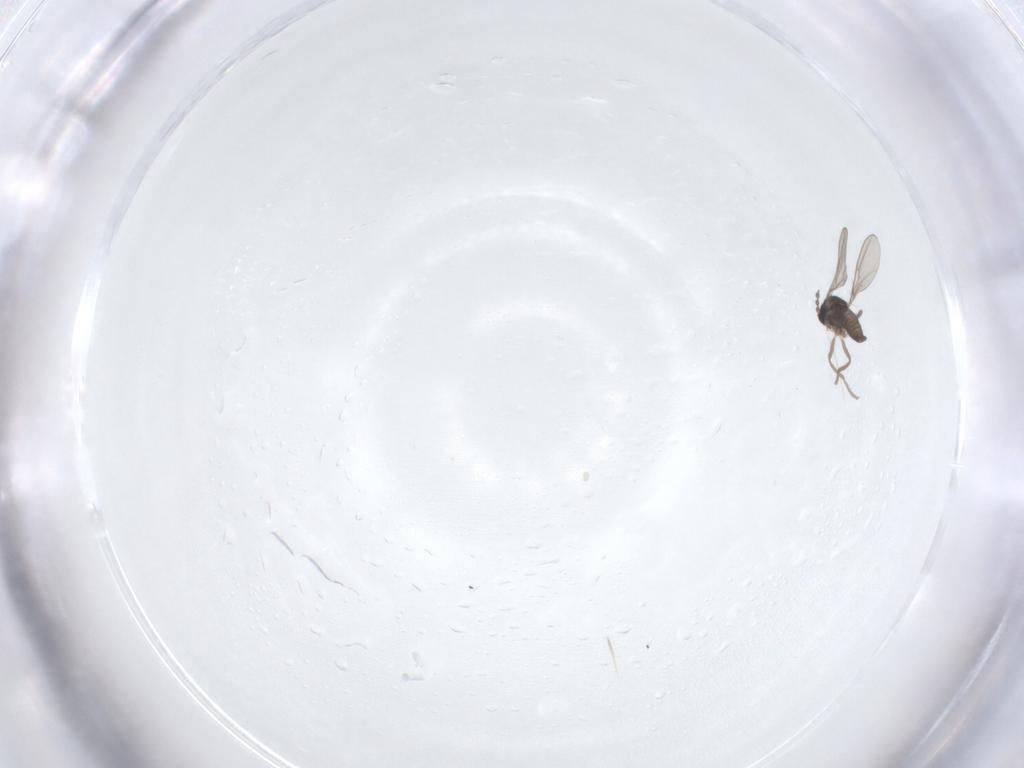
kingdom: Animalia
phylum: Arthropoda
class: Insecta
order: Diptera
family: Cecidomyiidae
